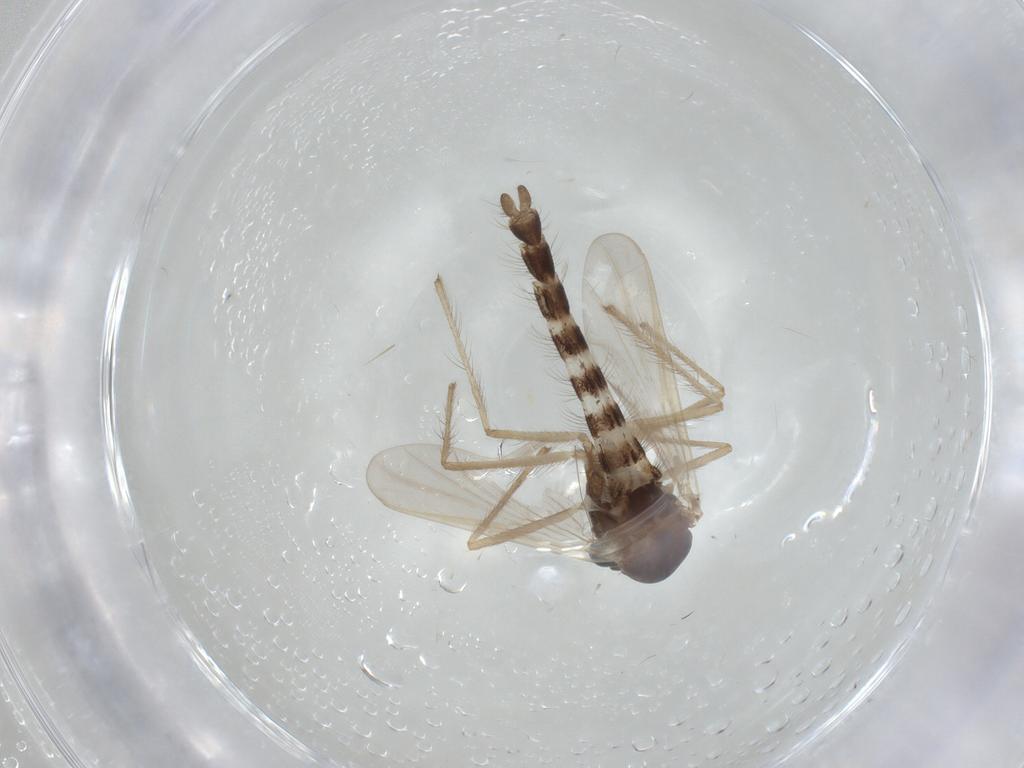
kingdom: Animalia
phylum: Arthropoda
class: Insecta
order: Diptera
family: Chironomidae
